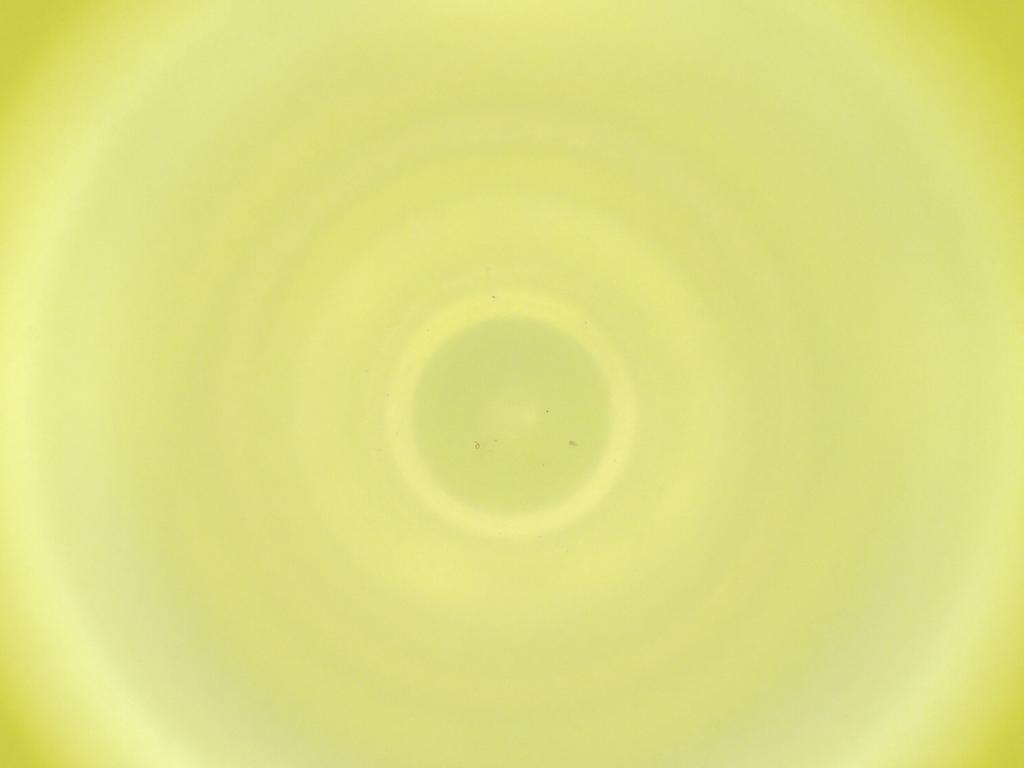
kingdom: Animalia
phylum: Arthropoda
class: Insecta
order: Diptera
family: Cecidomyiidae
